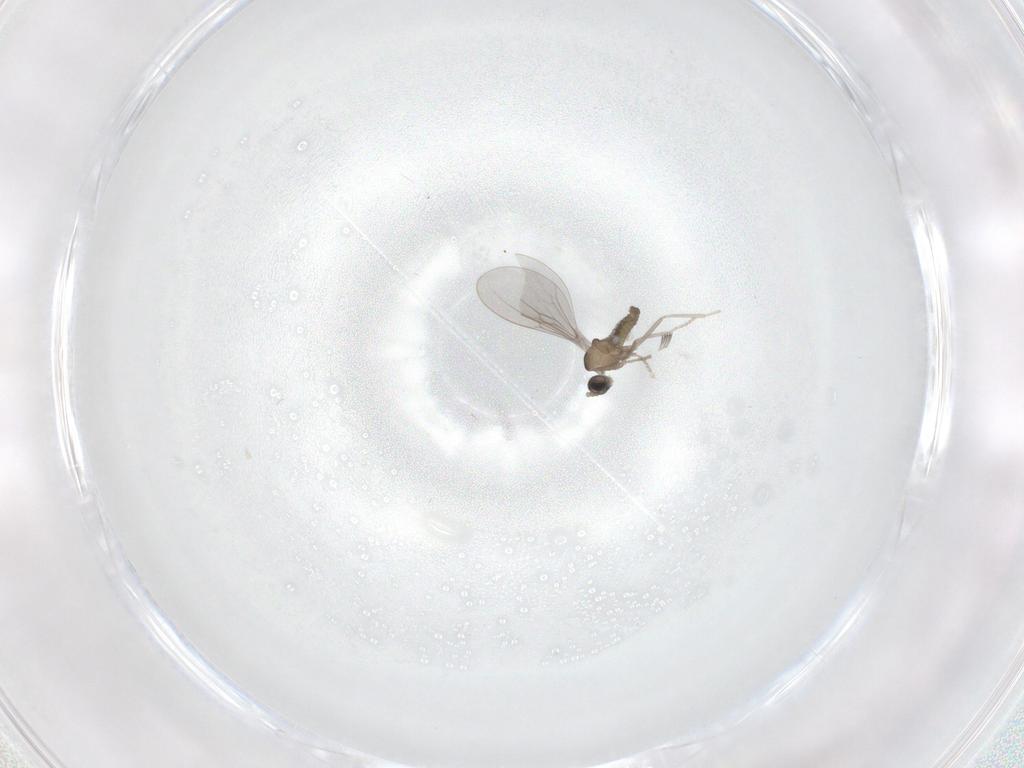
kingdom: Animalia
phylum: Arthropoda
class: Insecta
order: Diptera
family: Cecidomyiidae
